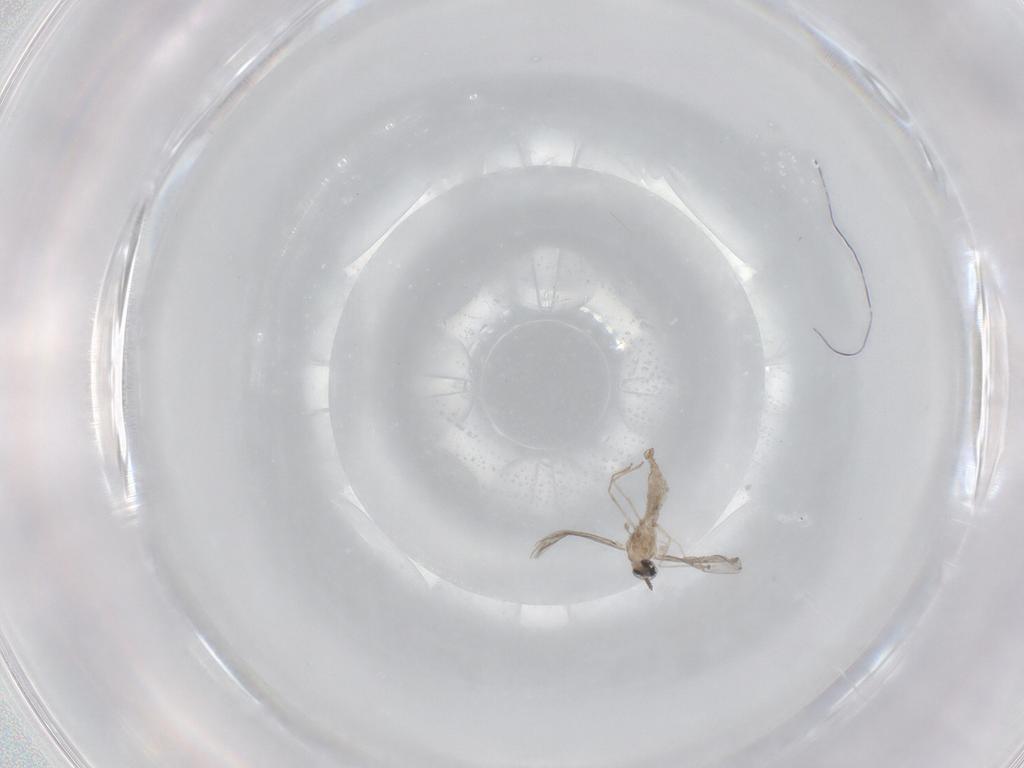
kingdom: Animalia
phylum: Arthropoda
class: Insecta
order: Diptera
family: Cecidomyiidae
